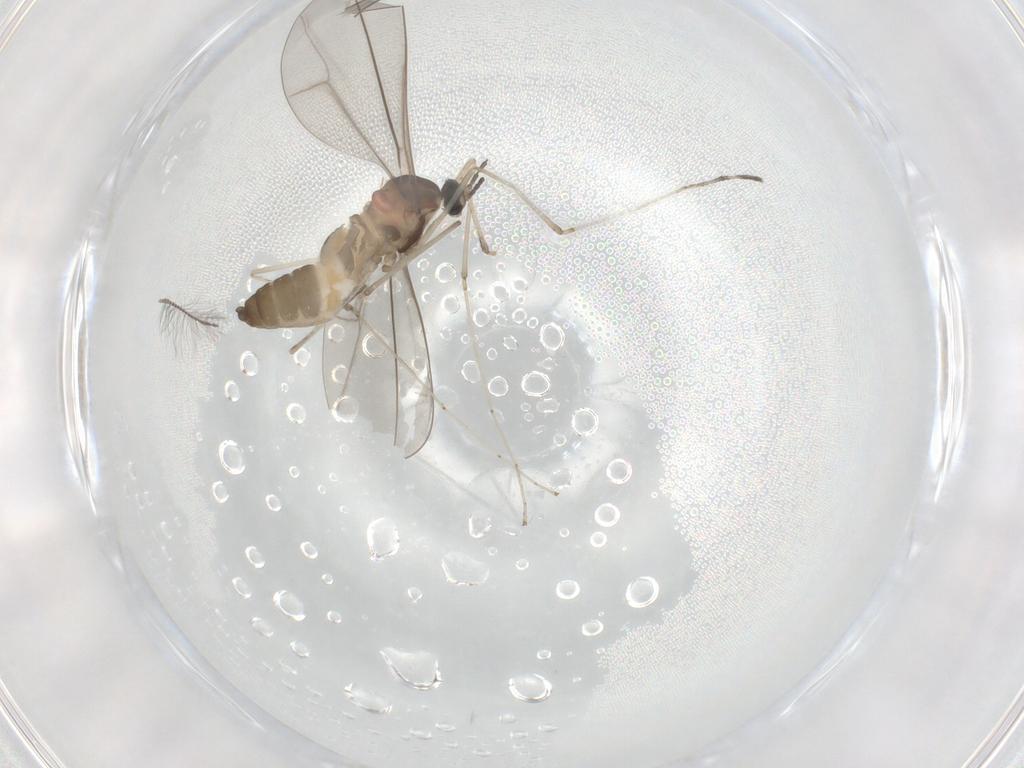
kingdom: Animalia
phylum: Arthropoda
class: Insecta
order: Diptera
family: Cecidomyiidae
